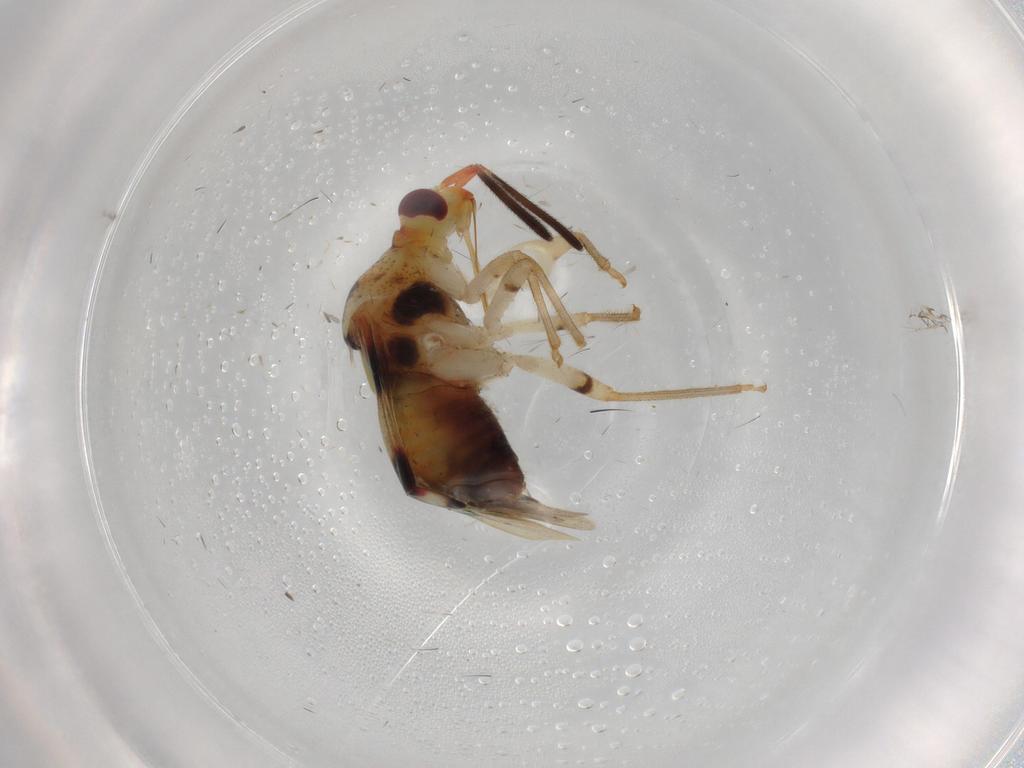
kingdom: Animalia
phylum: Arthropoda
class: Insecta
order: Hemiptera
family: Miridae
